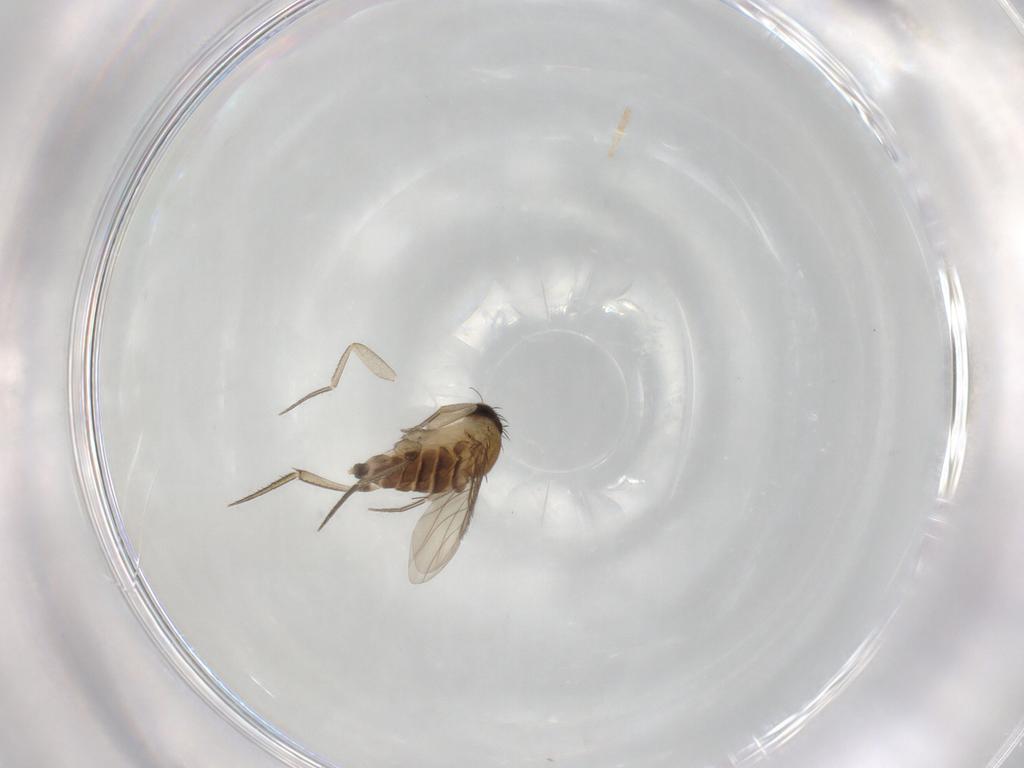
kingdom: Animalia
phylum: Arthropoda
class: Insecta
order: Diptera
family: Phoridae
